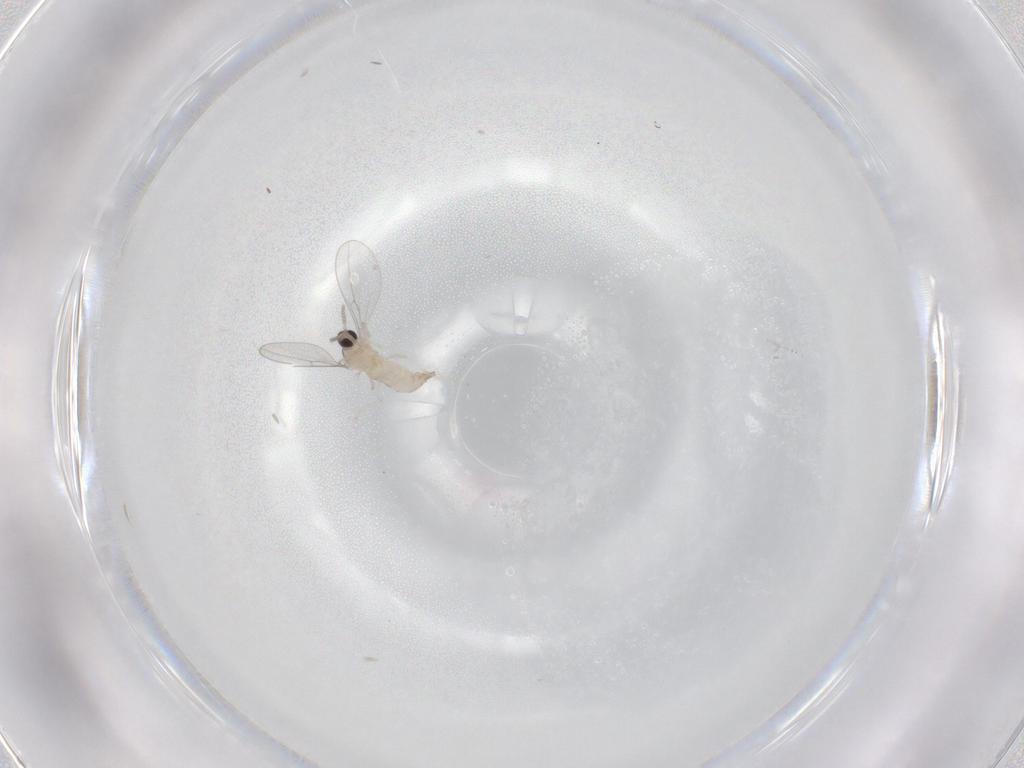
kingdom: Animalia
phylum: Arthropoda
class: Insecta
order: Diptera
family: Cecidomyiidae
